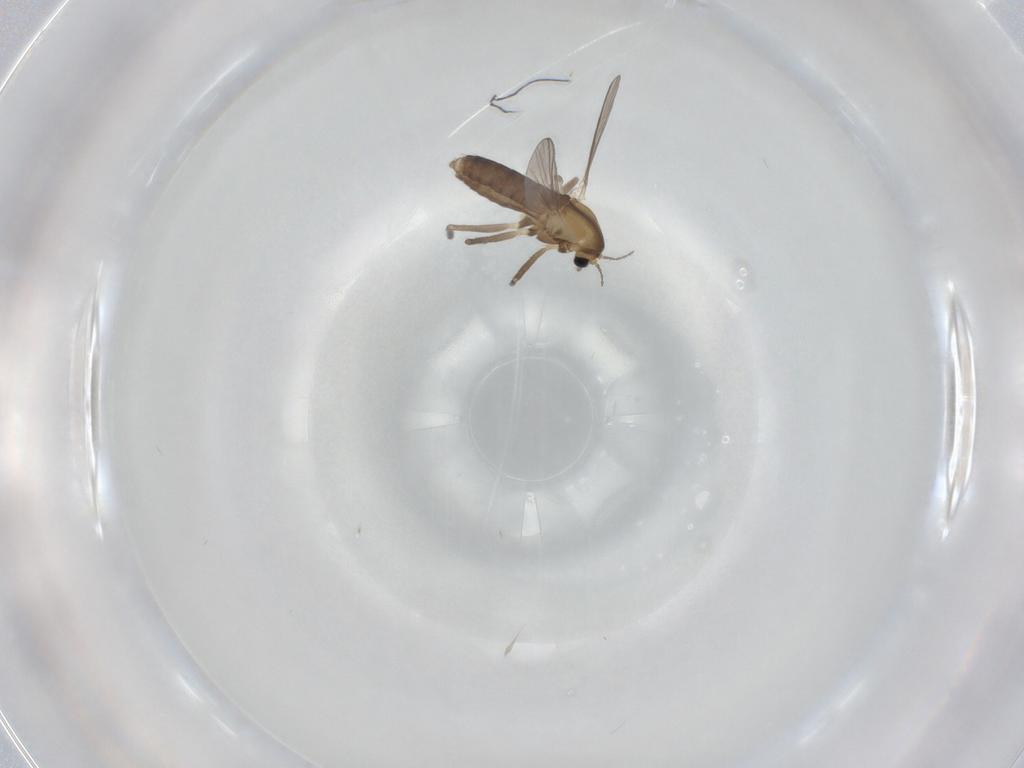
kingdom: Animalia
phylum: Arthropoda
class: Insecta
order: Diptera
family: Chironomidae
